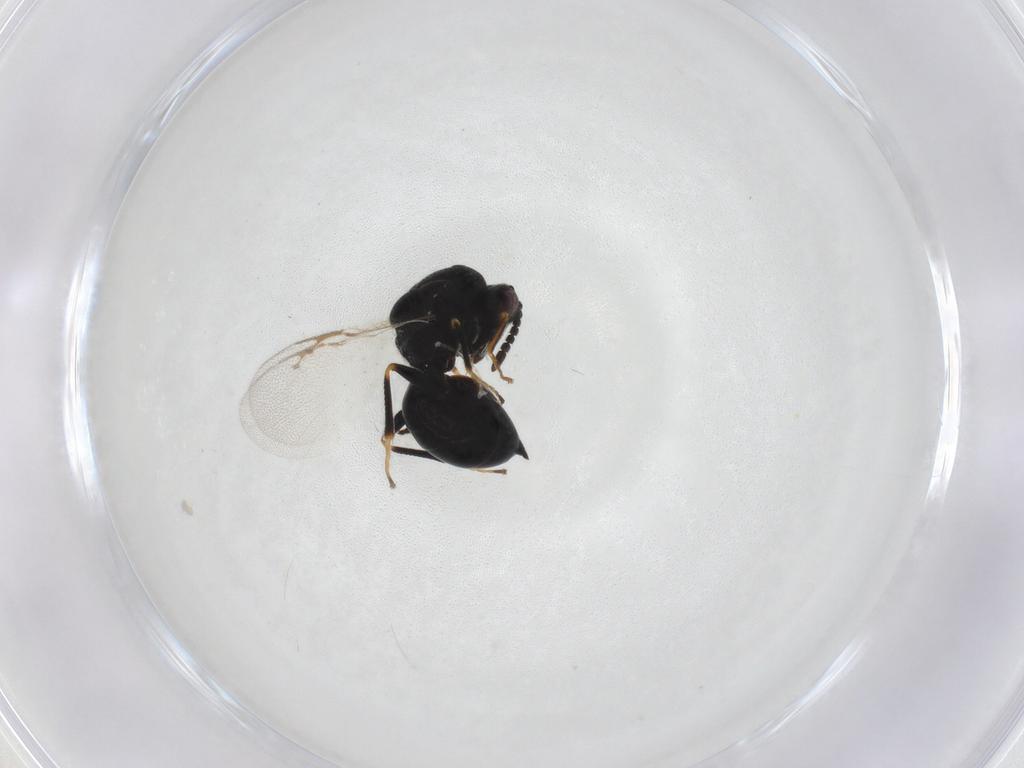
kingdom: Animalia
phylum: Arthropoda
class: Insecta
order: Hymenoptera
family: Eurytomidae
